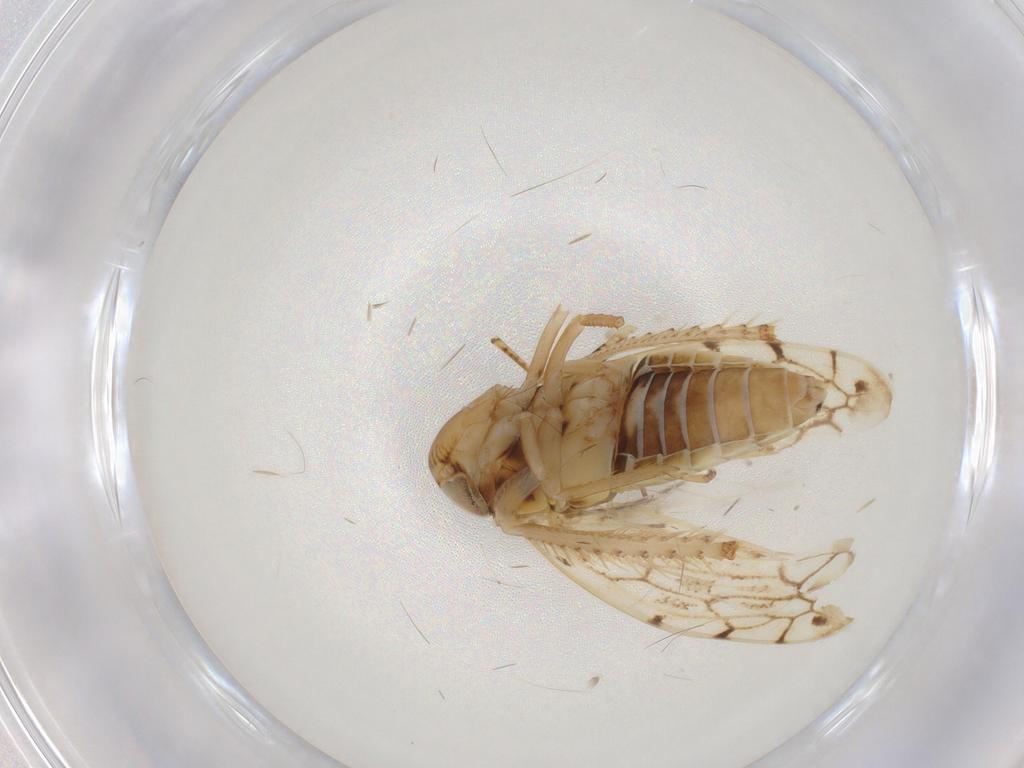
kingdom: Animalia
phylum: Arthropoda
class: Insecta
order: Hemiptera
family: Cicadellidae
